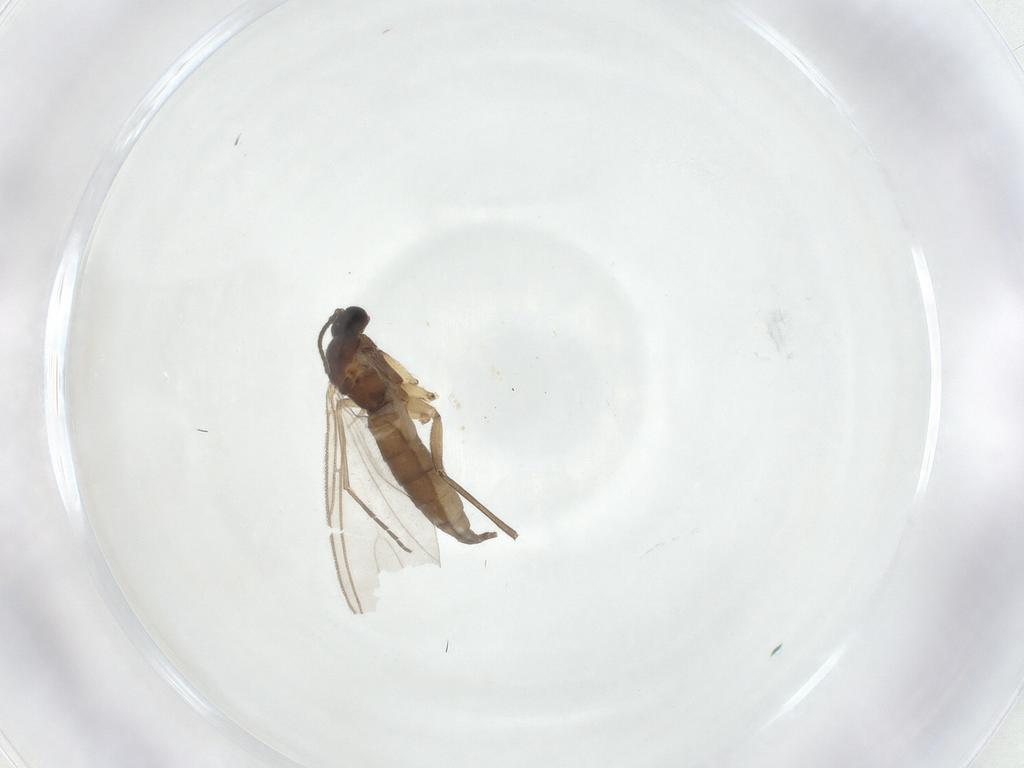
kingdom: Animalia
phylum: Arthropoda
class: Insecta
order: Diptera
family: Sciaridae
